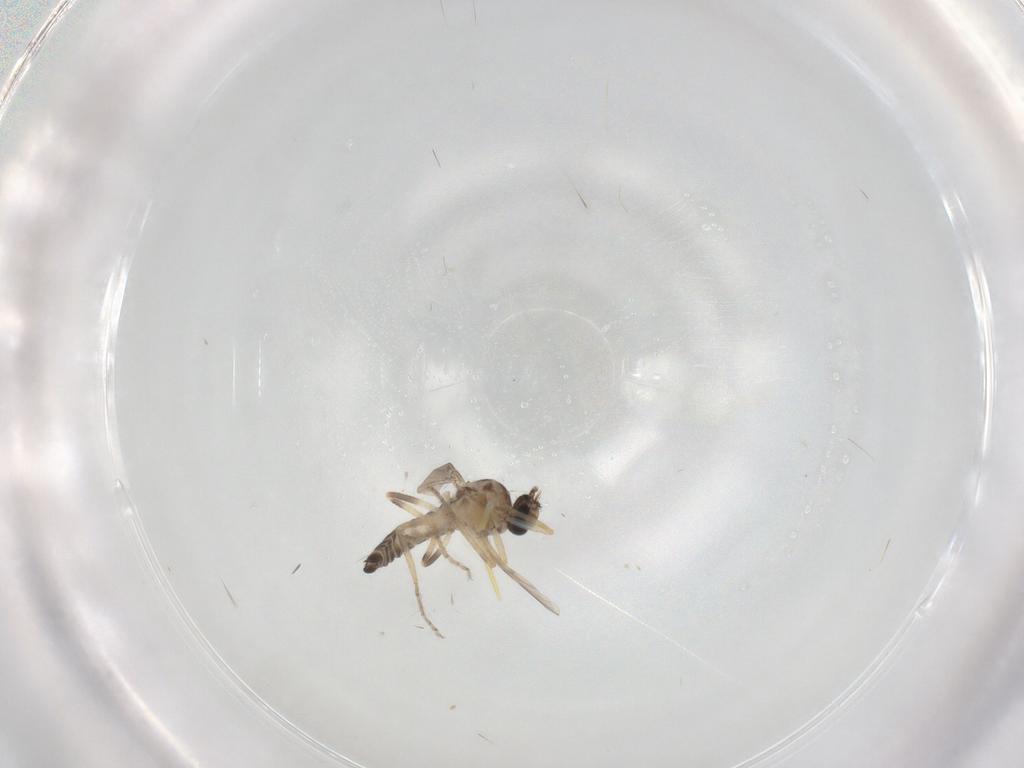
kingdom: Animalia
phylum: Arthropoda
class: Insecta
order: Diptera
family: Ceratopogonidae
